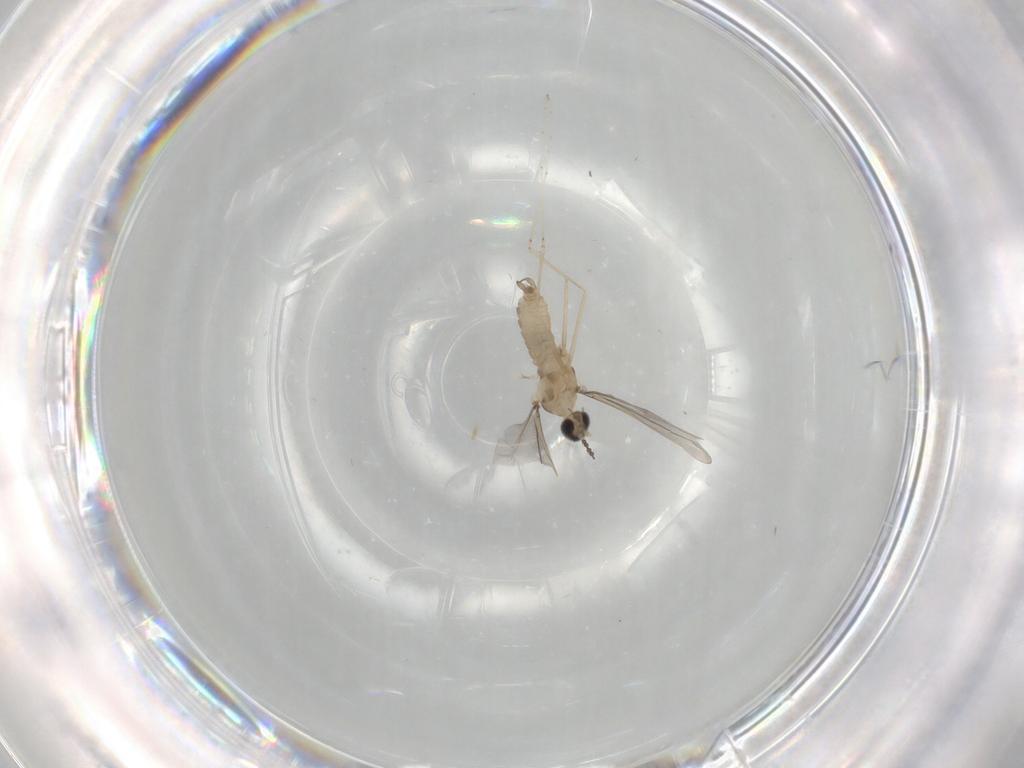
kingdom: Animalia
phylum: Arthropoda
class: Insecta
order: Diptera
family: Cecidomyiidae
